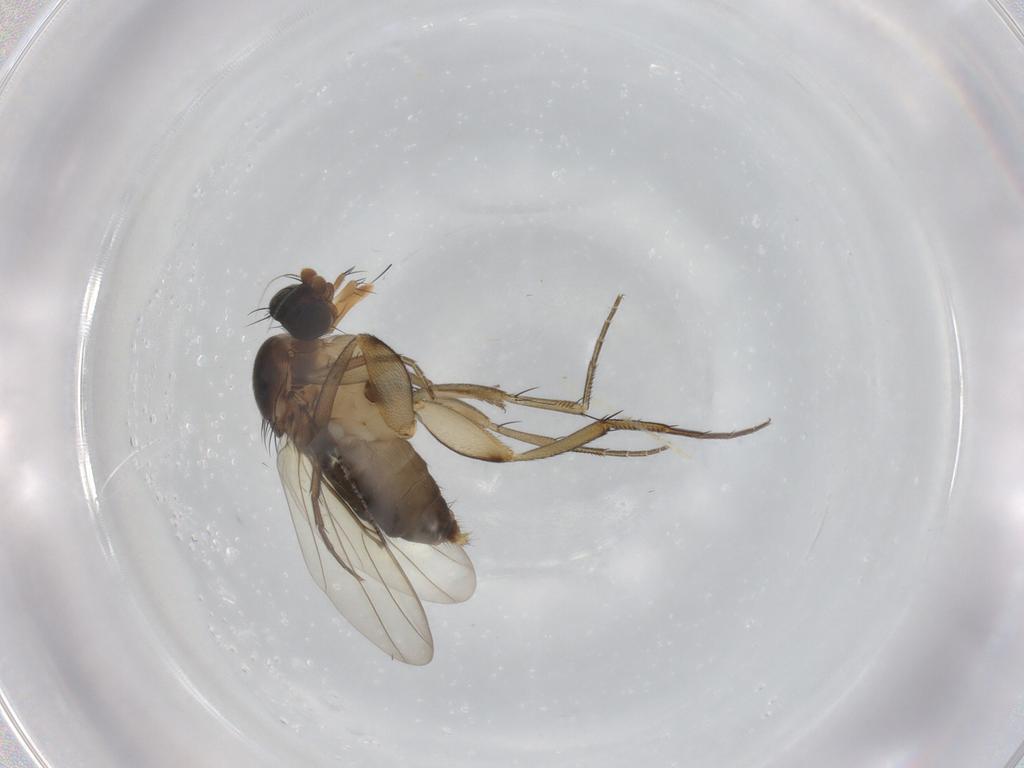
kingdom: Animalia
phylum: Arthropoda
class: Insecta
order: Diptera
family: Phoridae
